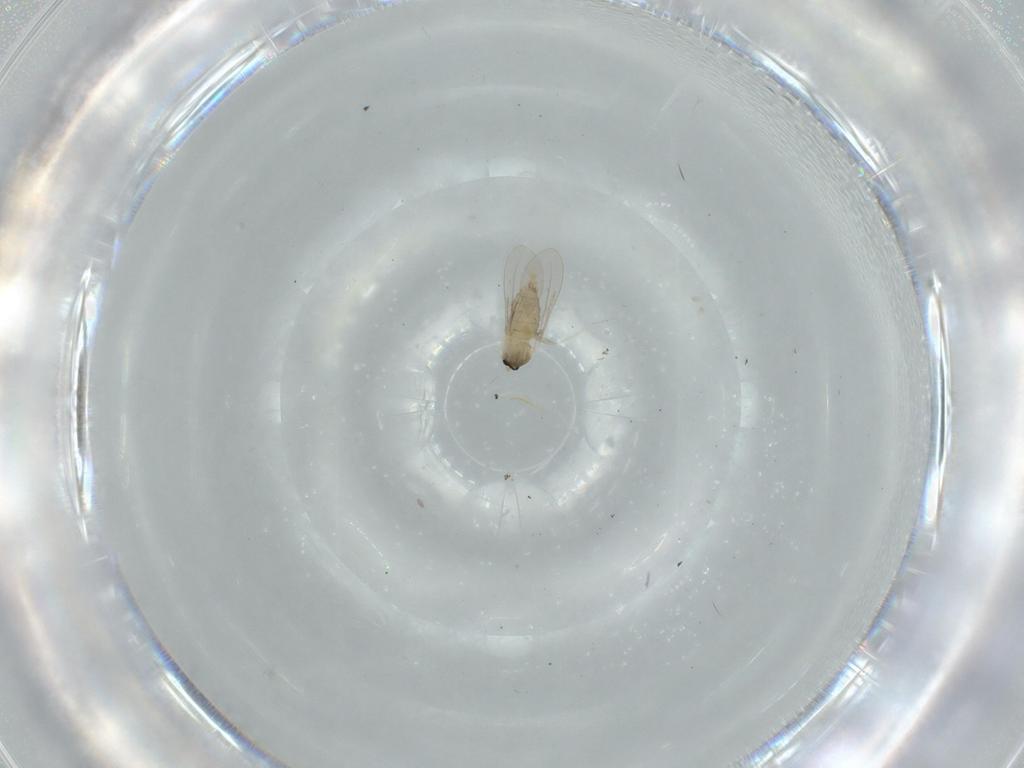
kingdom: Animalia
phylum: Arthropoda
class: Insecta
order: Diptera
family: Cecidomyiidae
